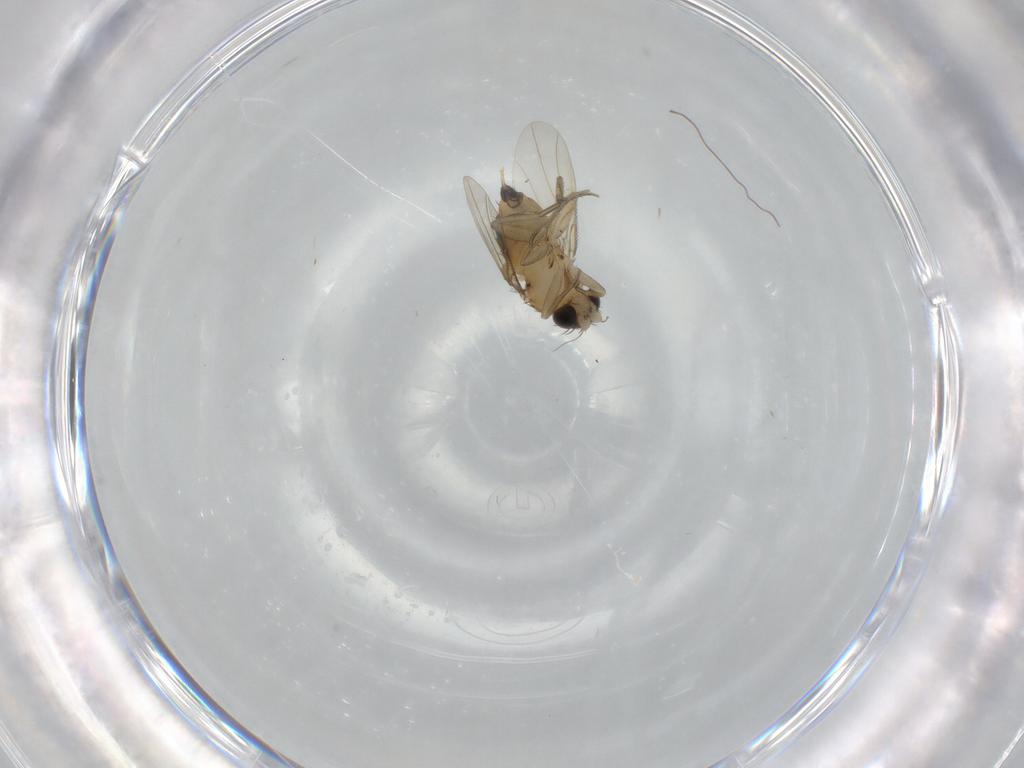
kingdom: Animalia
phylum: Arthropoda
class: Insecta
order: Diptera
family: Phoridae
